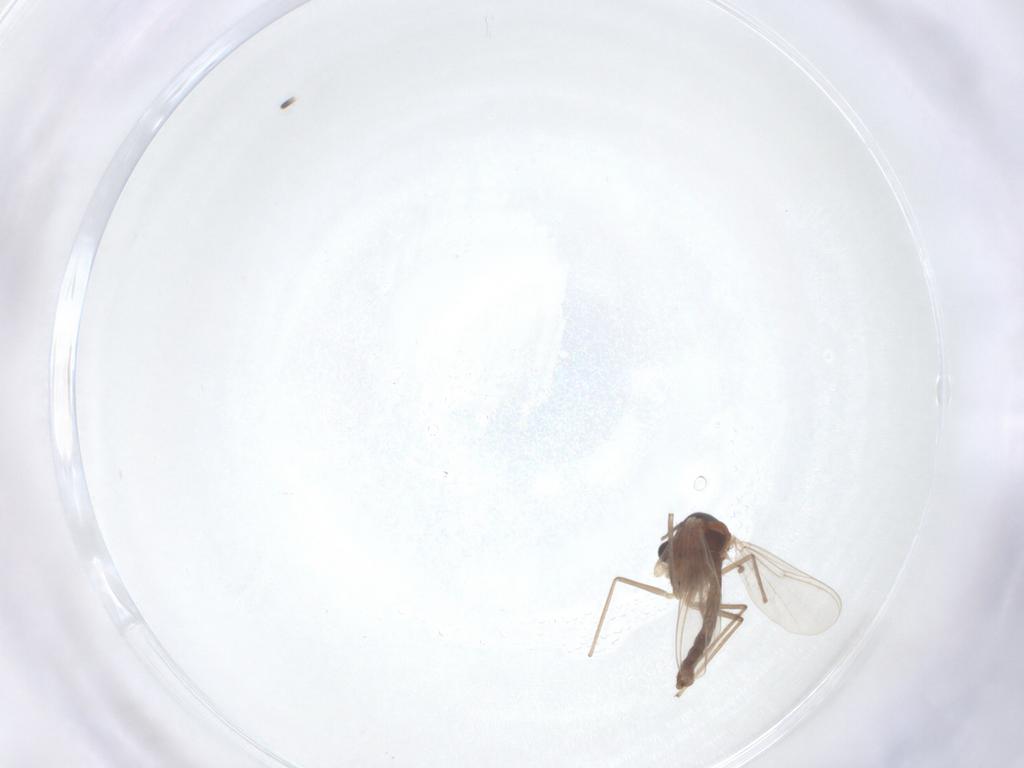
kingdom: Animalia
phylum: Arthropoda
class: Insecta
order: Diptera
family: Chironomidae
